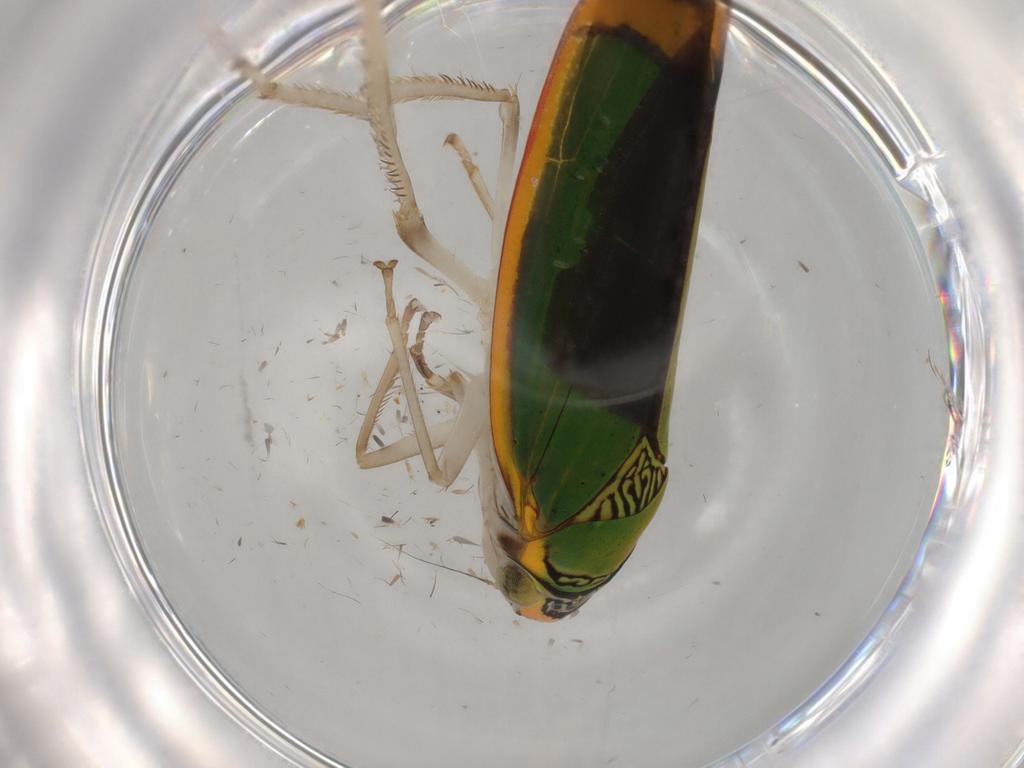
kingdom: Animalia
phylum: Arthropoda
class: Insecta
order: Hemiptera
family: Cicadellidae
